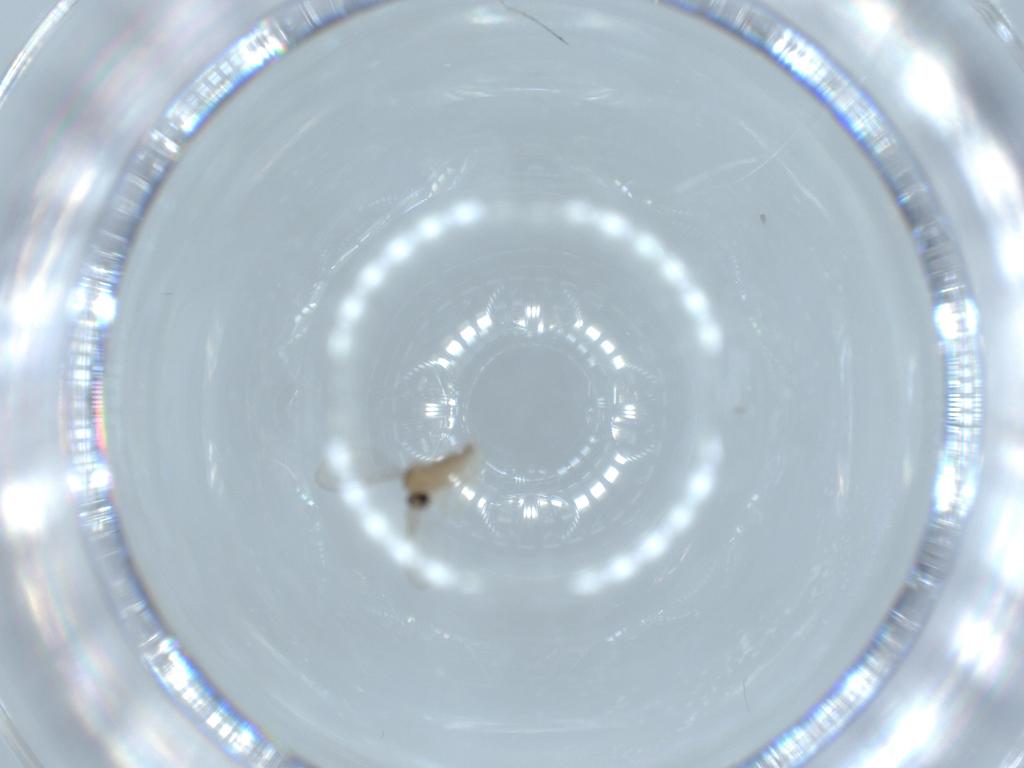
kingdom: Animalia
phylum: Arthropoda
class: Insecta
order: Diptera
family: Cecidomyiidae
